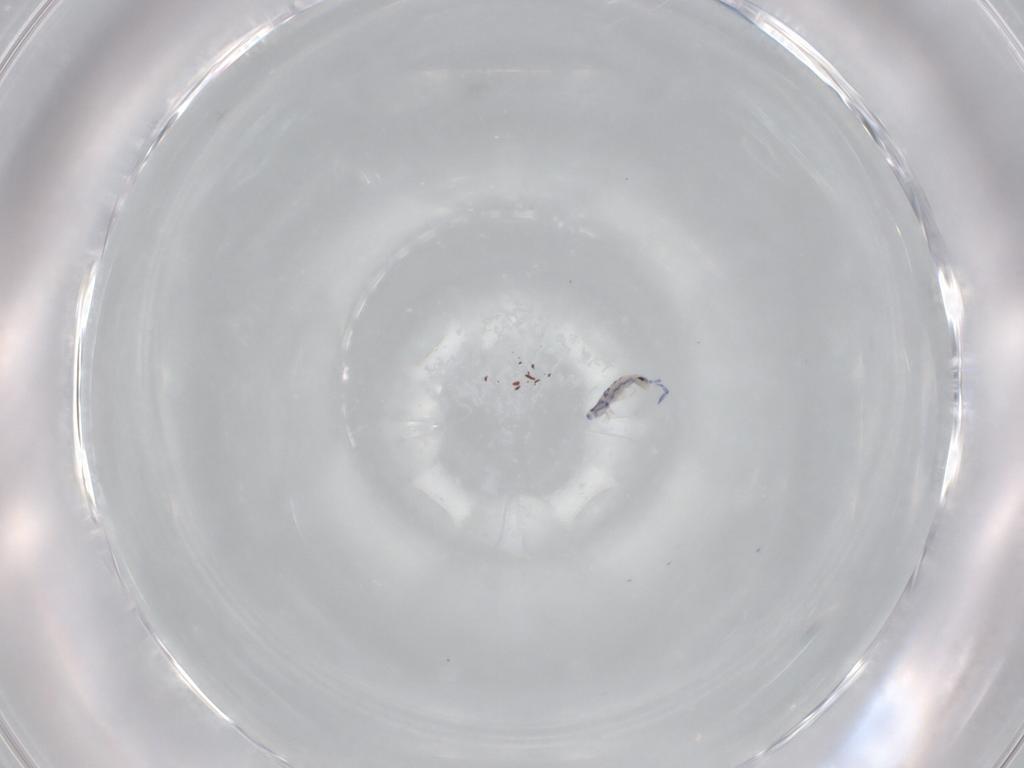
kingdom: Animalia
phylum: Arthropoda
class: Collembola
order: Entomobryomorpha
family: Entomobryidae
